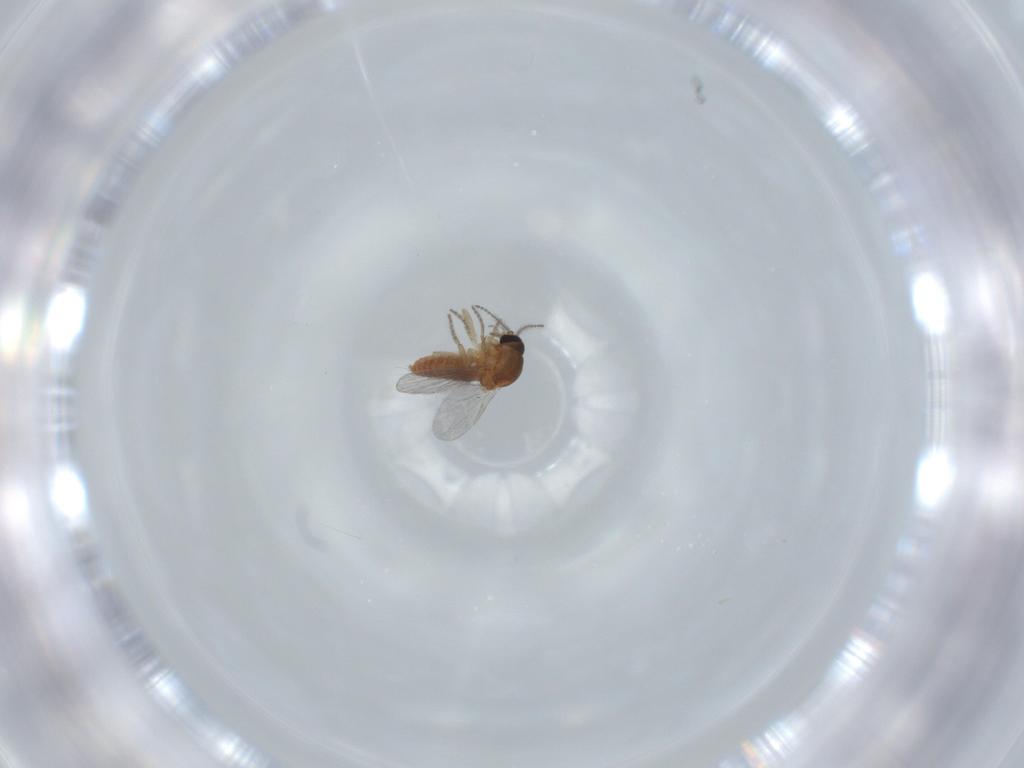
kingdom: Animalia
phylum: Arthropoda
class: Insecta
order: Diptera
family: Ceratopogonidae
